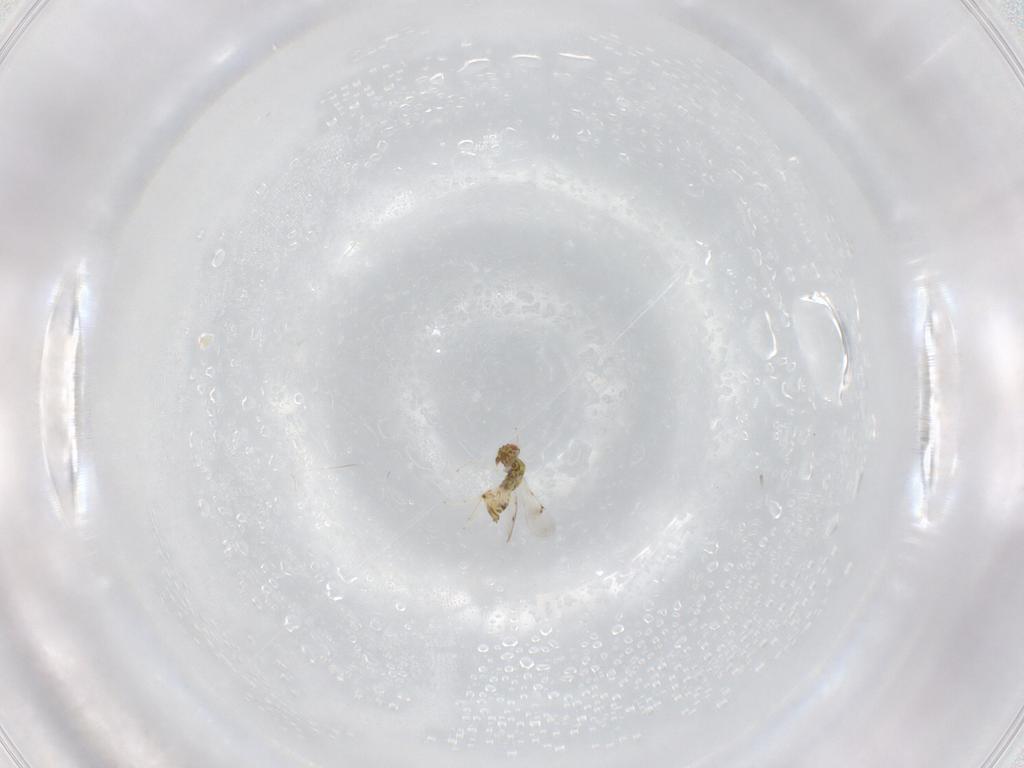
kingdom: Animalia
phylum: Arthropoda
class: Insecta
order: Hymenoptera
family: Eulophidae
